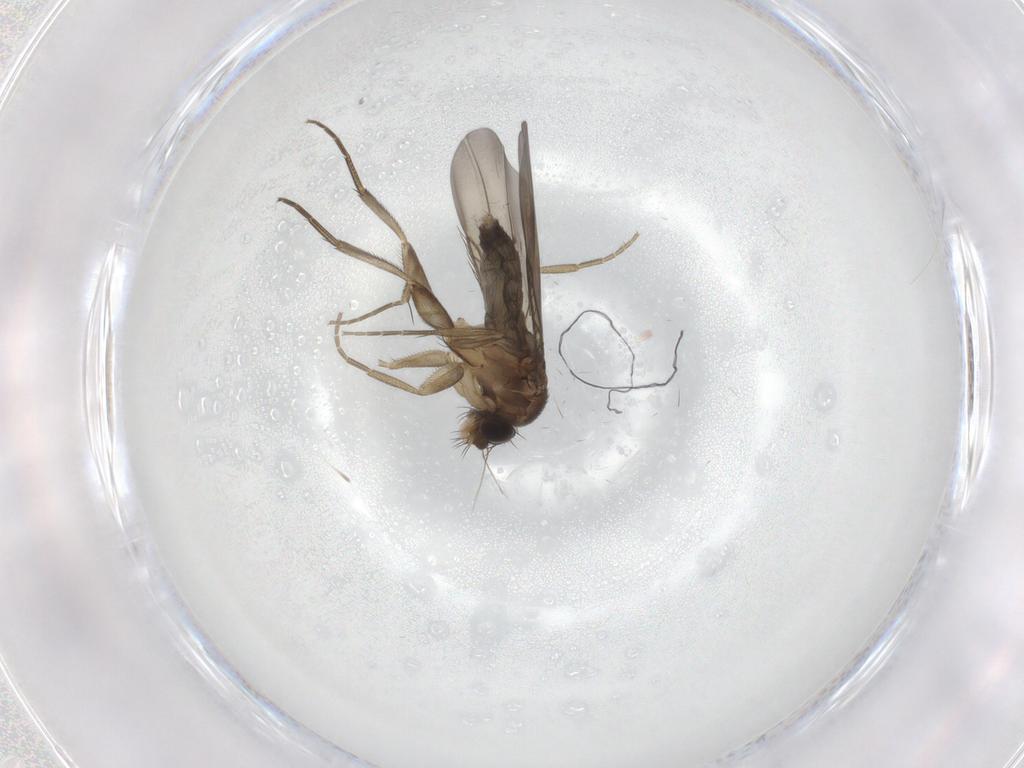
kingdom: Animalia
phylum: Arthropoda
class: Insecta
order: Diptera
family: Phoridae
